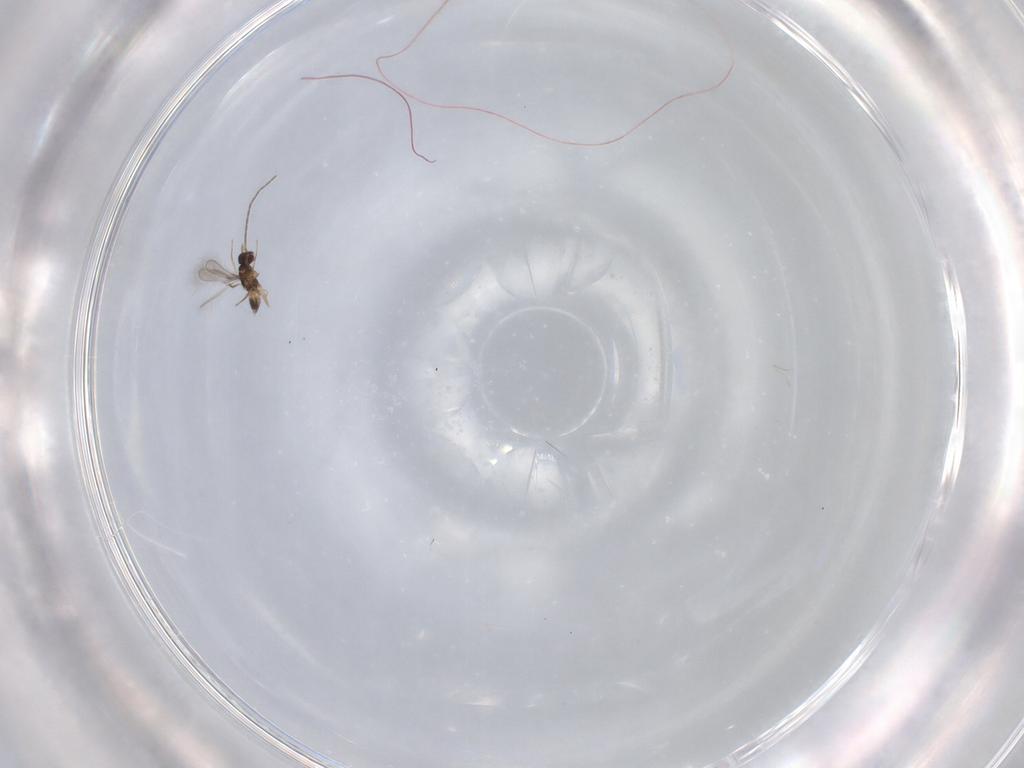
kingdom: Animalia
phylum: Arthropoda
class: Insecta
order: Hymenoptera
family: Mymaridae
